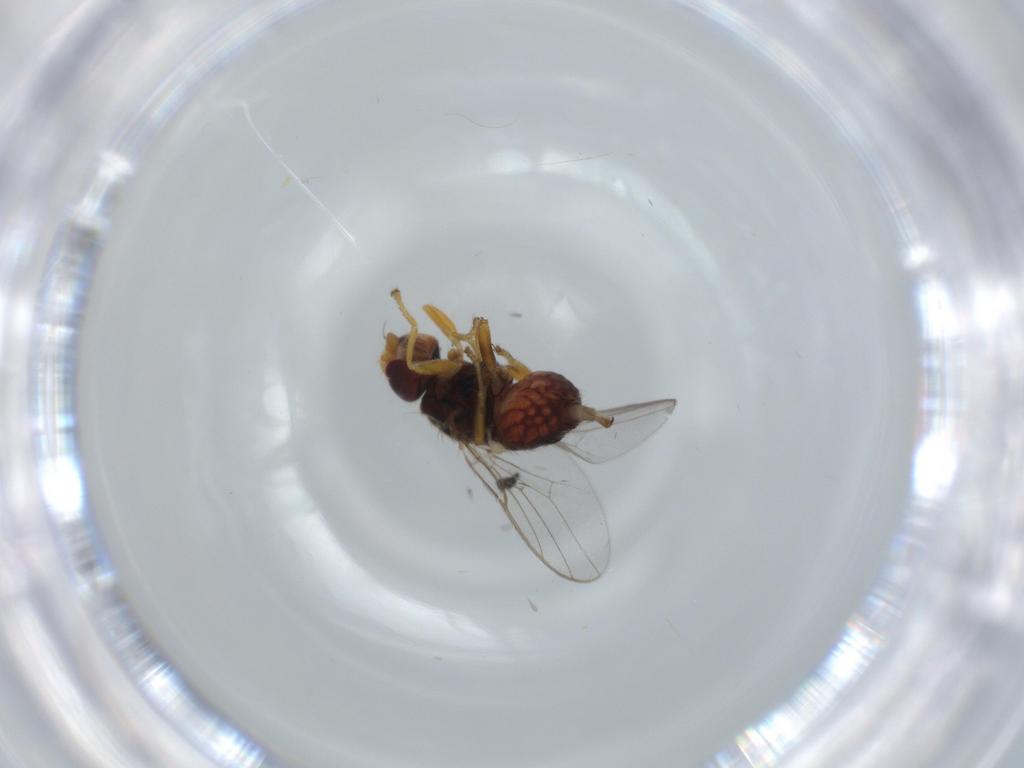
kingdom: Animalia
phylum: Arthropoda
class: Insecta
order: Diptera
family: Chloropidae
